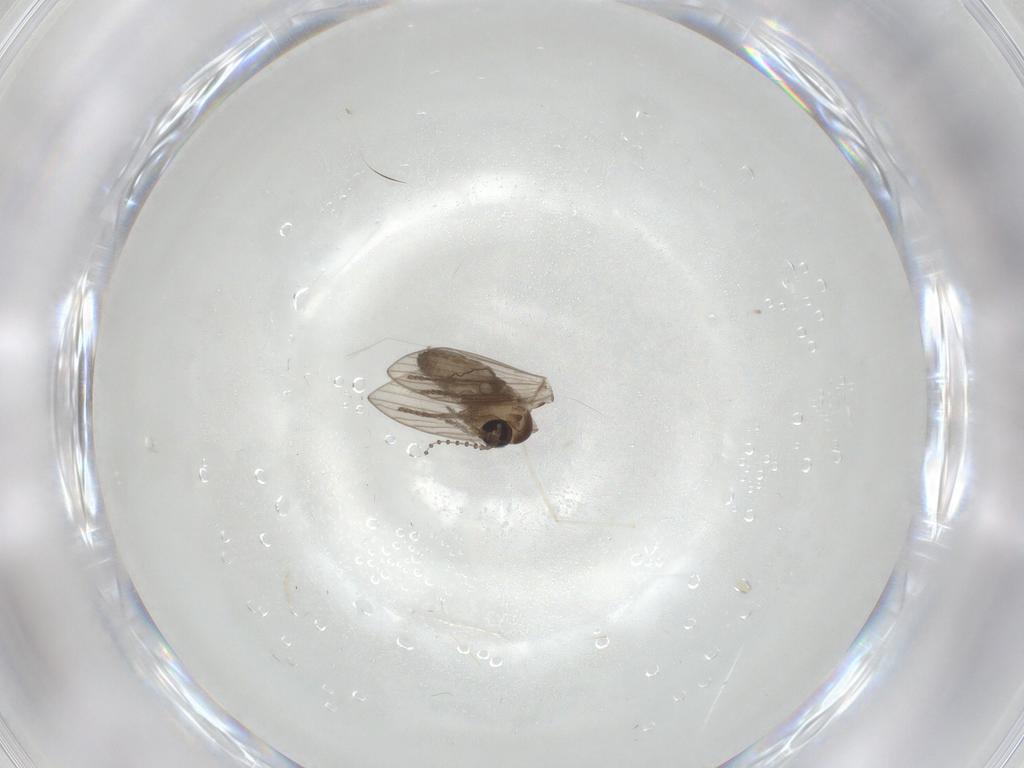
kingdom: Animalia
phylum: Arthropoda
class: Insecta
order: Diptera
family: Psychodidae
